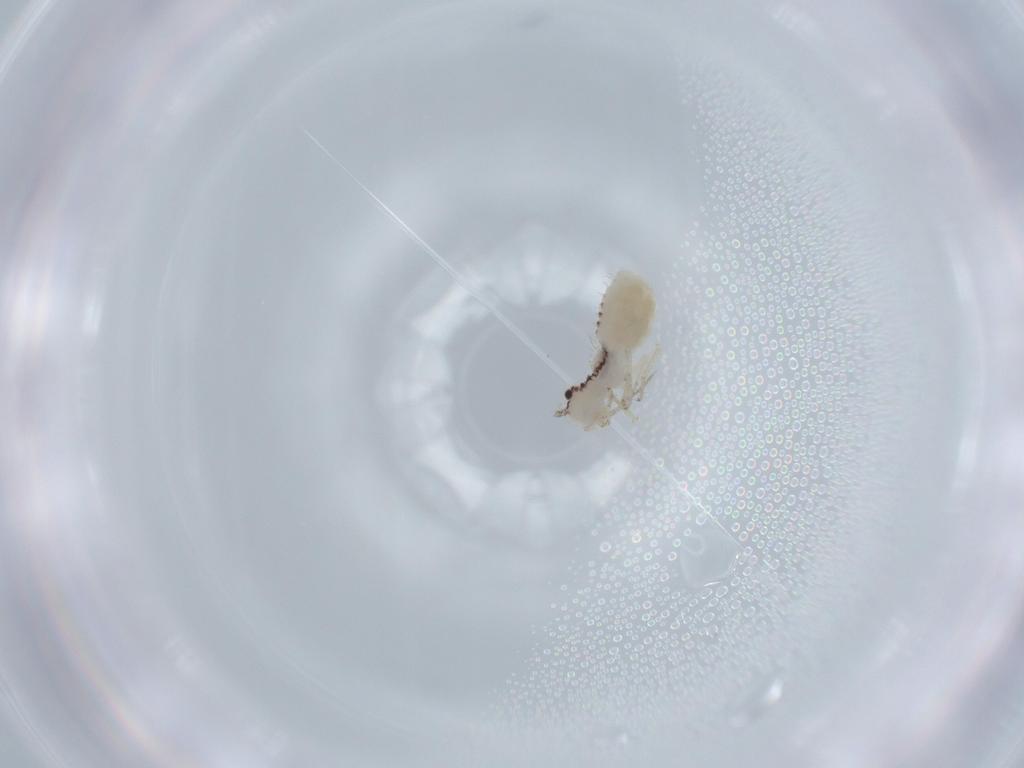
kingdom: Animalia
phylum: Arthropoda
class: Insecta
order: Psocodea
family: Pseudocaeciliidae
